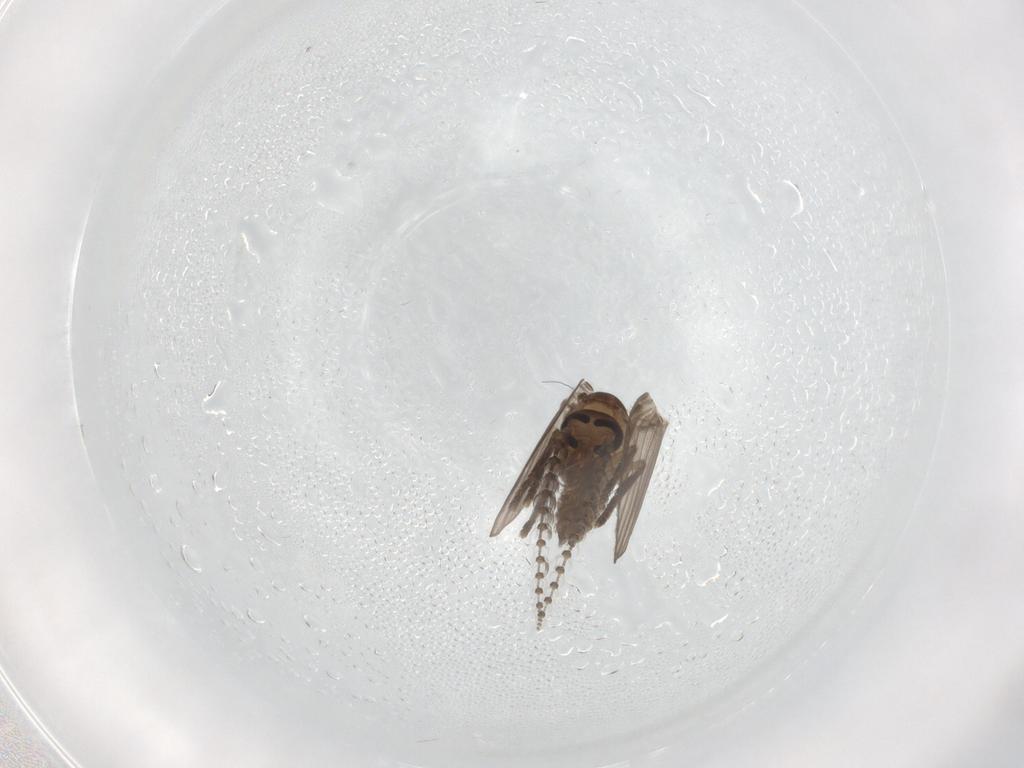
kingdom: Animalia
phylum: Arthropoda
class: Insecta
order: Diptera
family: Psychodidae
